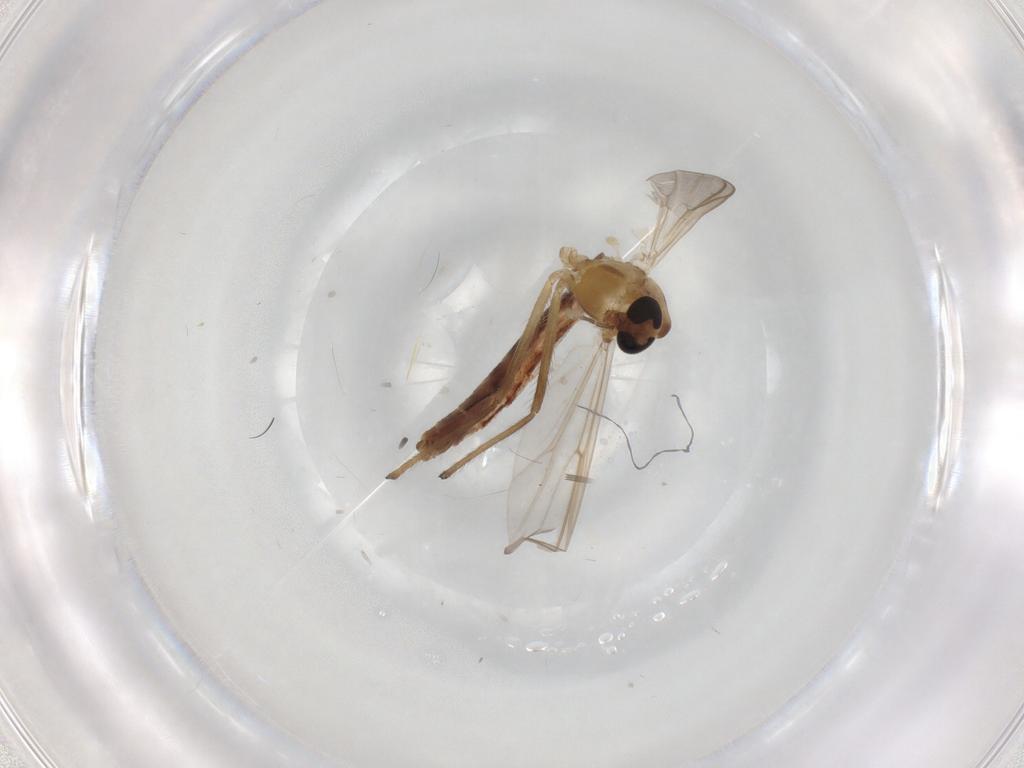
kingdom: Animalia
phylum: Arthropoda
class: Insecta
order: Diptera
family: Chironomidae
